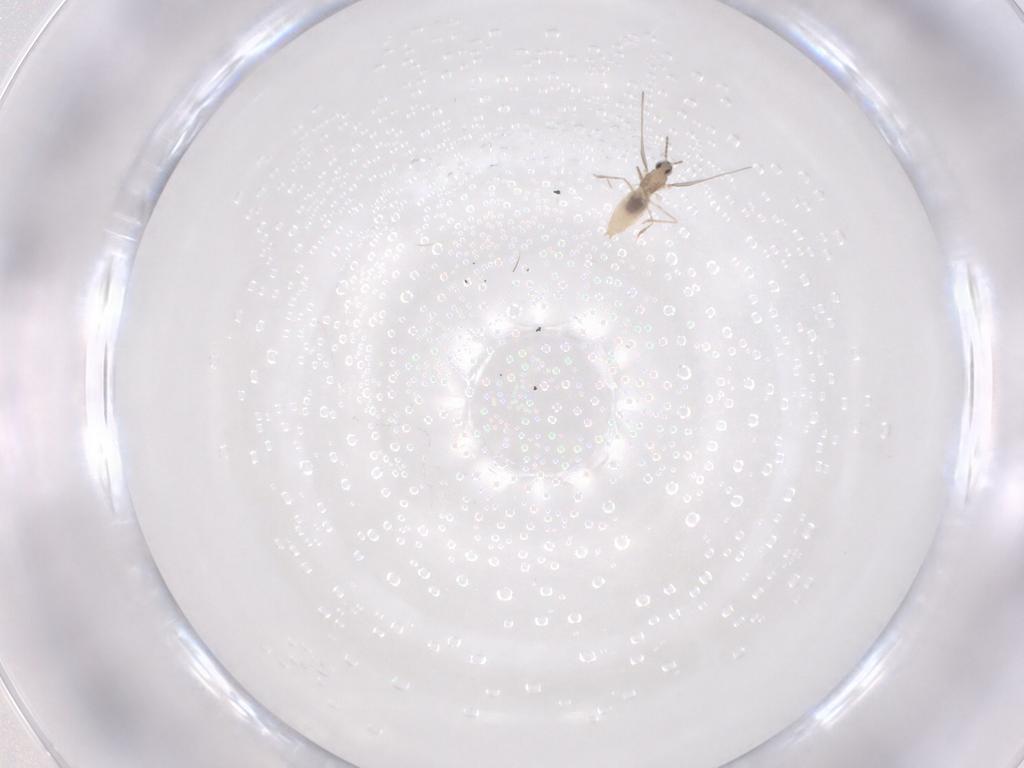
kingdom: Animalia
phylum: Arthropoda
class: Insecta
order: Diptera
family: Cecidomyiidae
